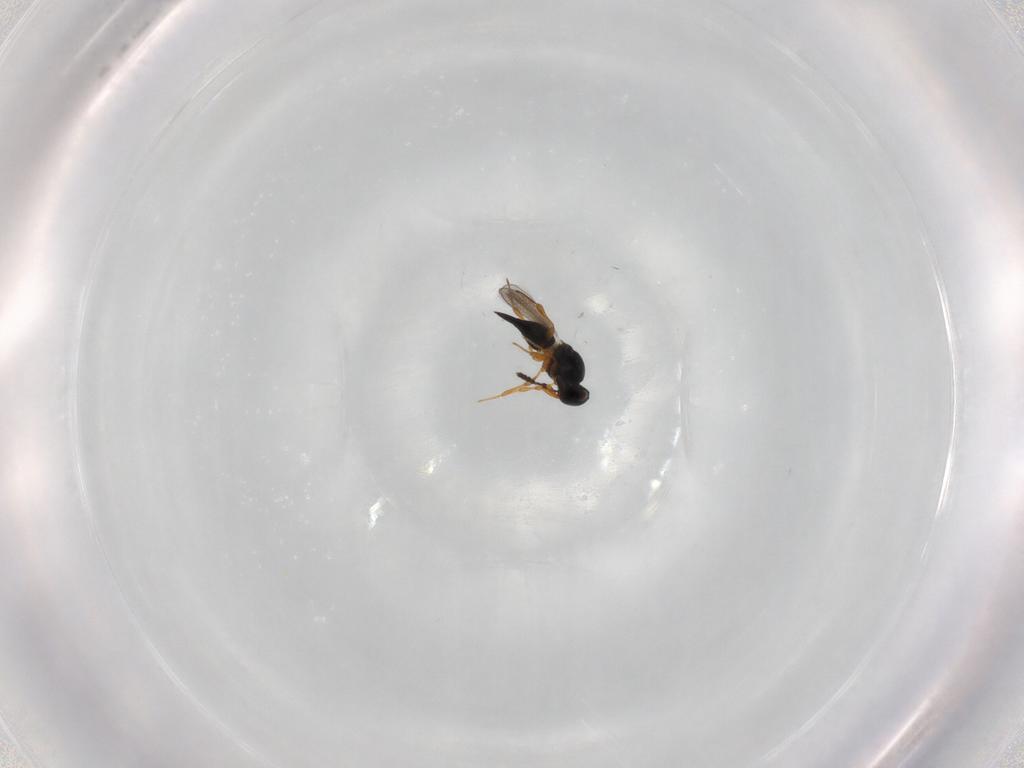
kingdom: Animalia
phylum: Arthropoda
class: Insecta
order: Hymenoptera
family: Platygastridae
